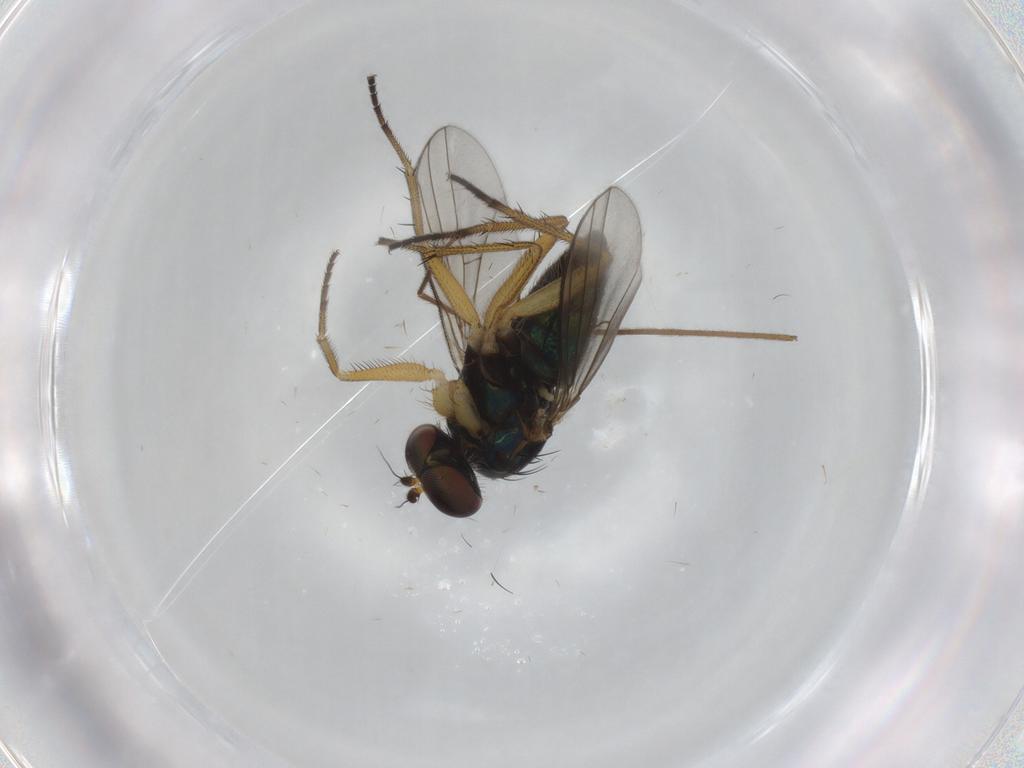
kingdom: Animalia
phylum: Arthropoda
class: Insecta
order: Diptera
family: Dolichopodidae
